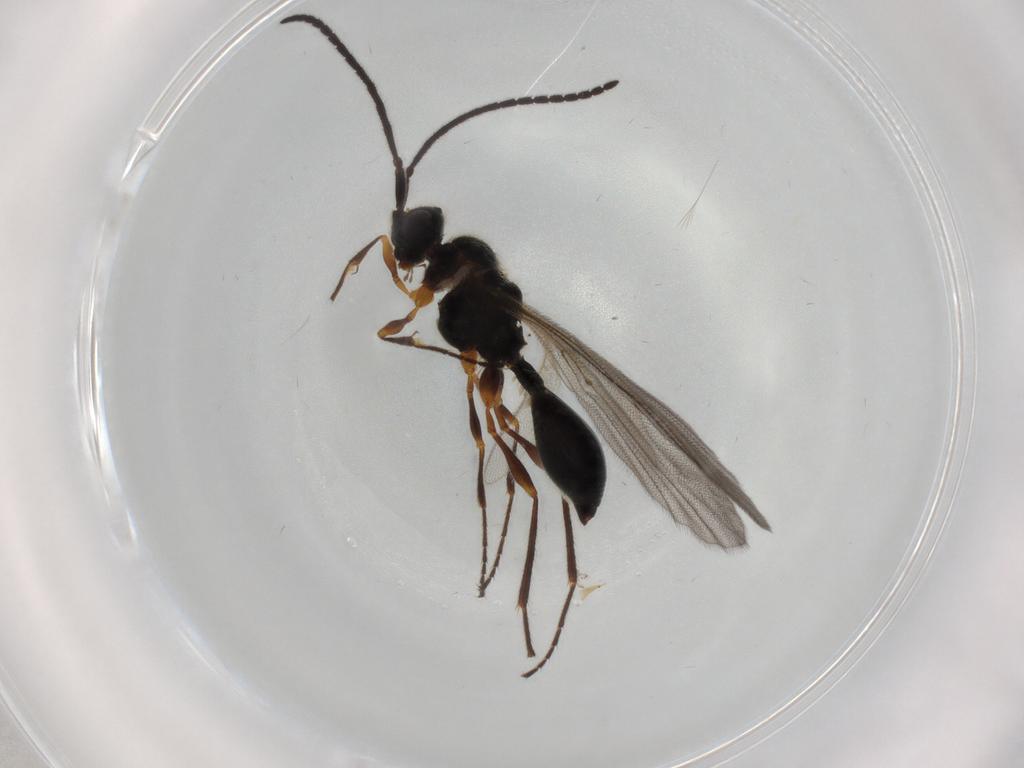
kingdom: Animalia
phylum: Arthropoda
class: Insecta
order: Hymenoptera
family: Diapriidae
